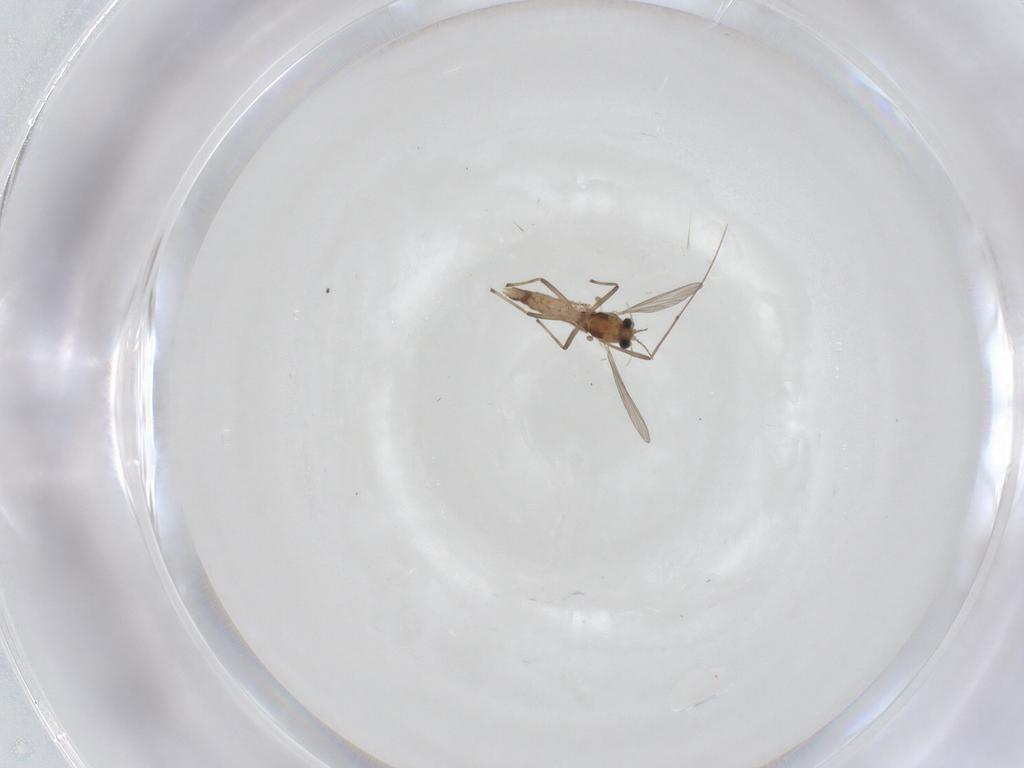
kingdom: Animalia
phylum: Arthropoda
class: Insecta
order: Diptera
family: Chironomidae
